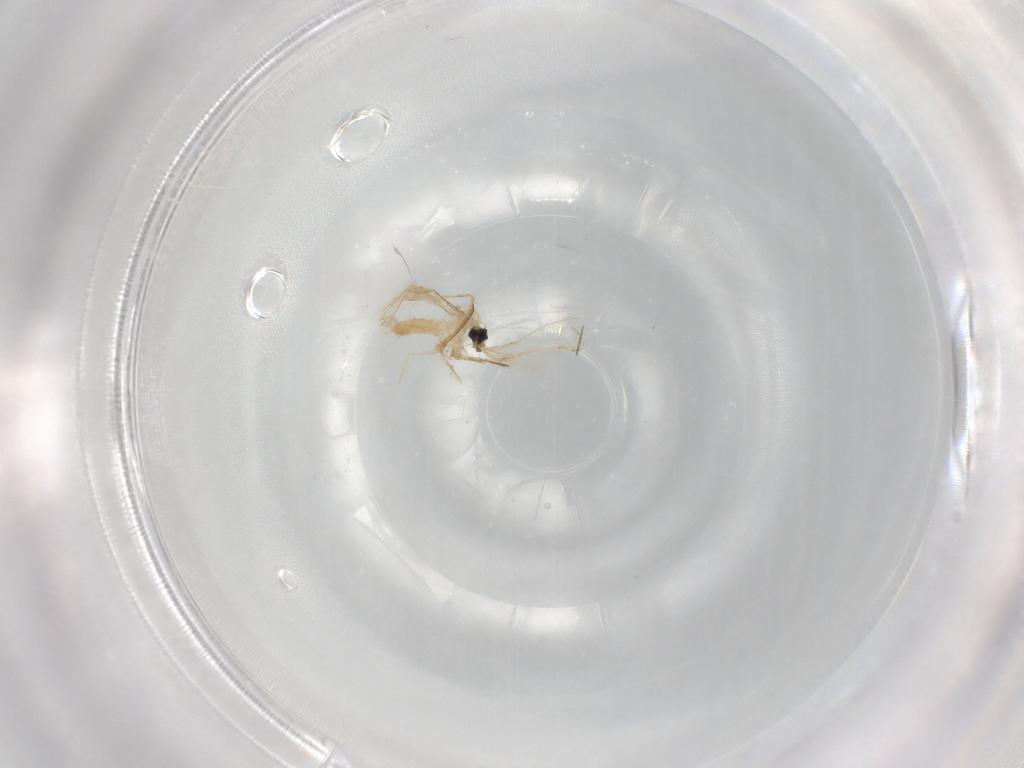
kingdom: Animalia
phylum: Arthropoda
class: Insecta
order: Diptera
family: Cecidomyiidae
